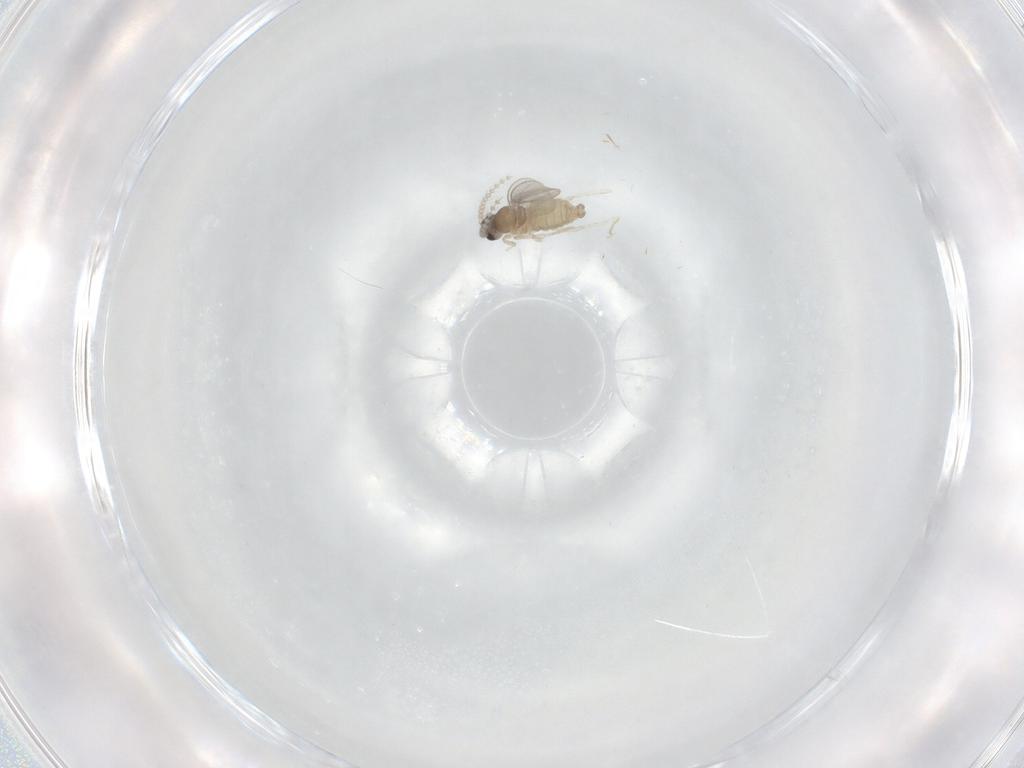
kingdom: Animalia
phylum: Arthropoda
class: Insecta
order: Diptera
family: Cecidomyiidae
